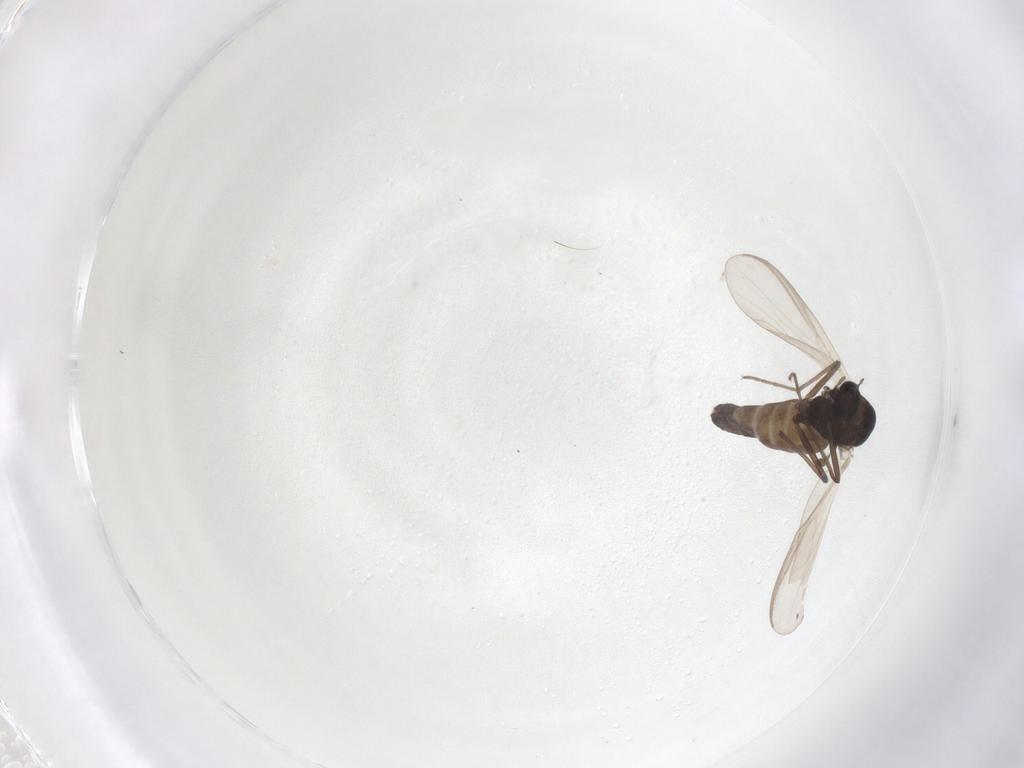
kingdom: Animalia
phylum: Arthropoda
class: Insecta
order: Diptera
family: Chironomidae
